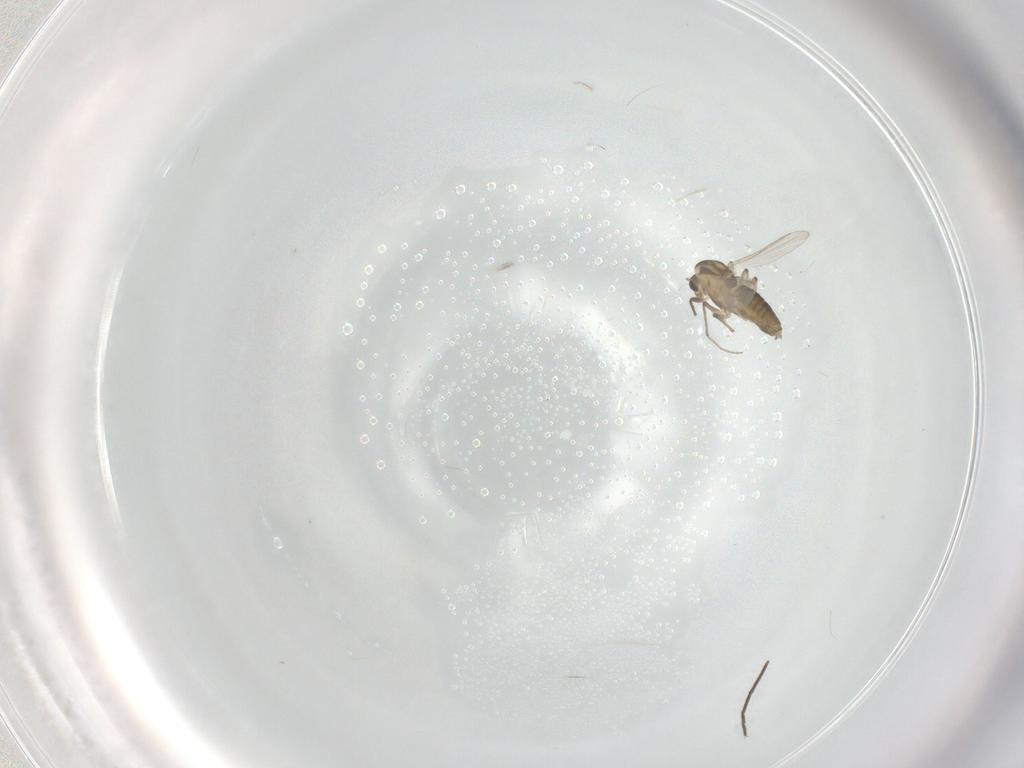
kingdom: Animalia
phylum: Arthropoda
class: Insecta
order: Diptera
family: Chironomidae
